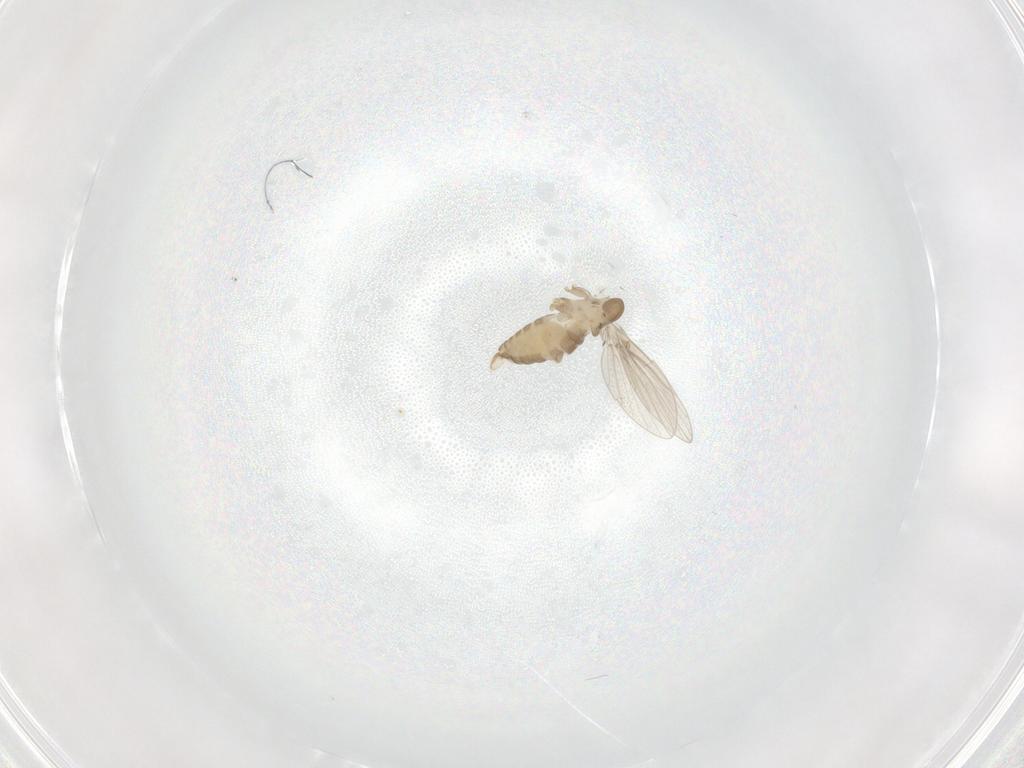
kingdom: Animalia
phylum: Arthropoda
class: Insecta
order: Diptera
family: Psychodidae
